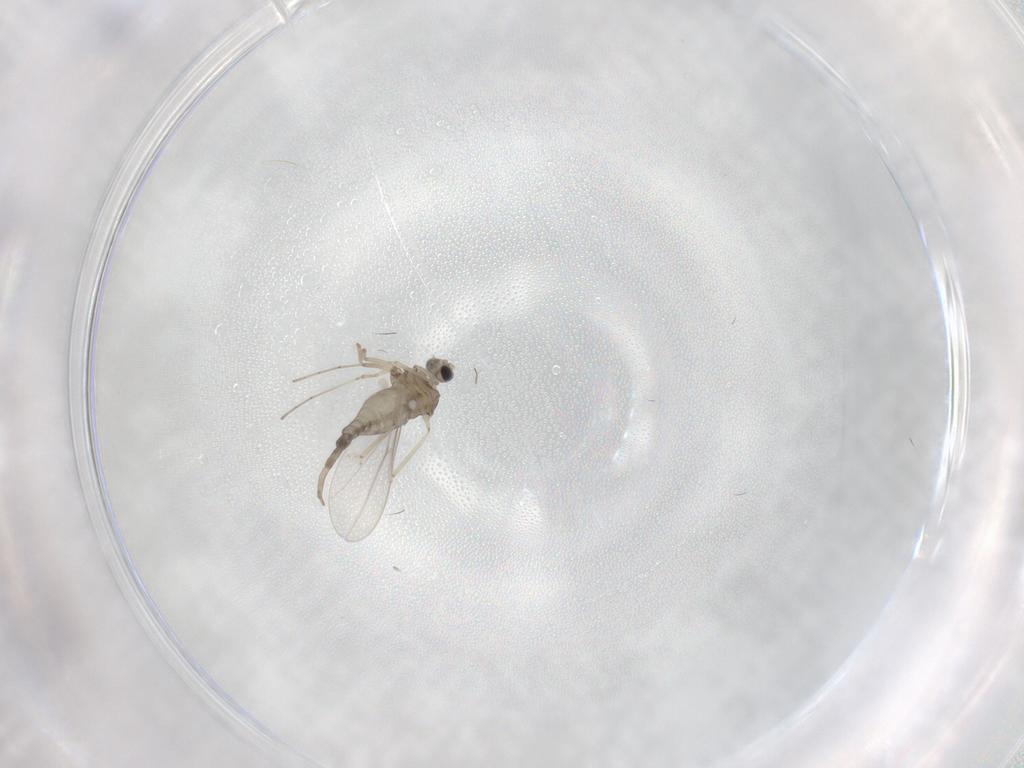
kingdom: Animalia
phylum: Arthropoda
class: Insecta
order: Diptera
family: Cecidomyiidae
